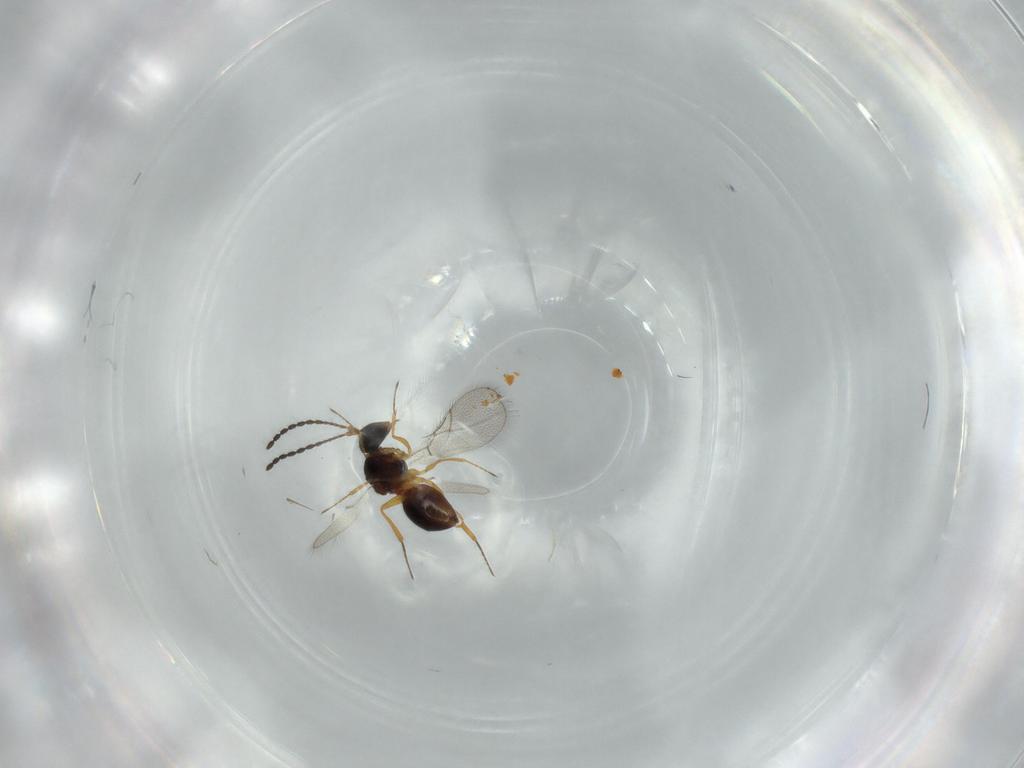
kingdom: Animalia
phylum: Arthropoda
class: Insecta
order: Hymenoptera
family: Figitidae
